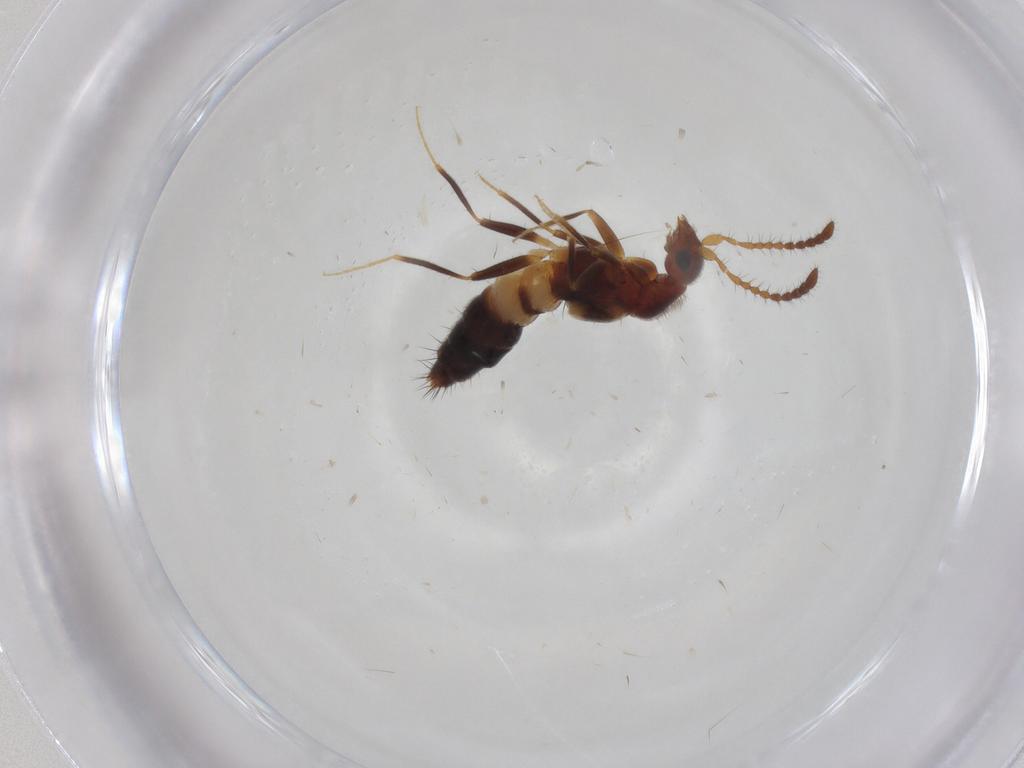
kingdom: Animalia
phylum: Arthropoda
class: Insecta
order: Coleoptera
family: Staphylinidae
